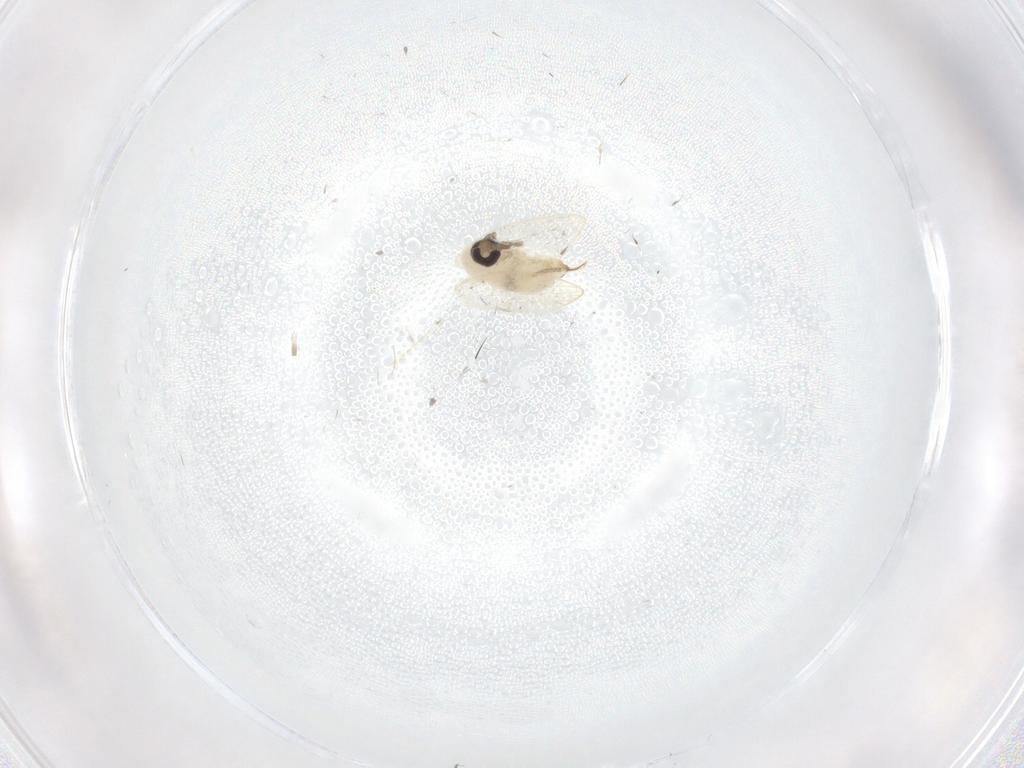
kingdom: Animalia
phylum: Arthropoda
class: Insecta
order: Diptera
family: Psychodidae
